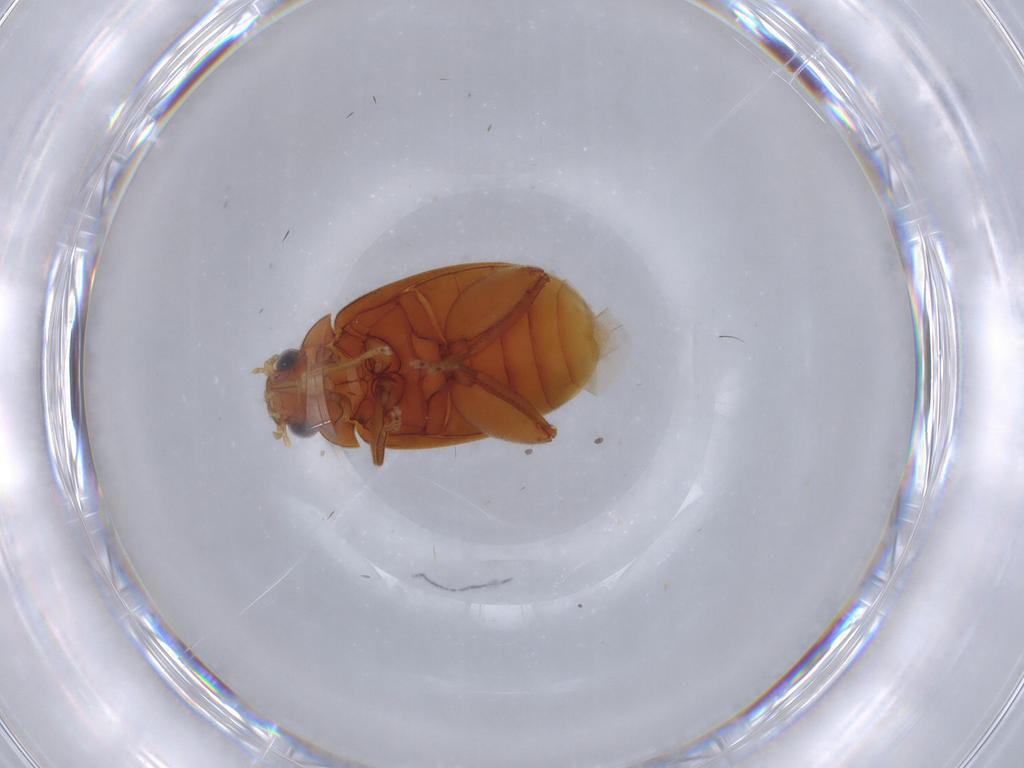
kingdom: Animalia
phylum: Arthropoda
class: Insecta
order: Coleoptera
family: Scirtidae
